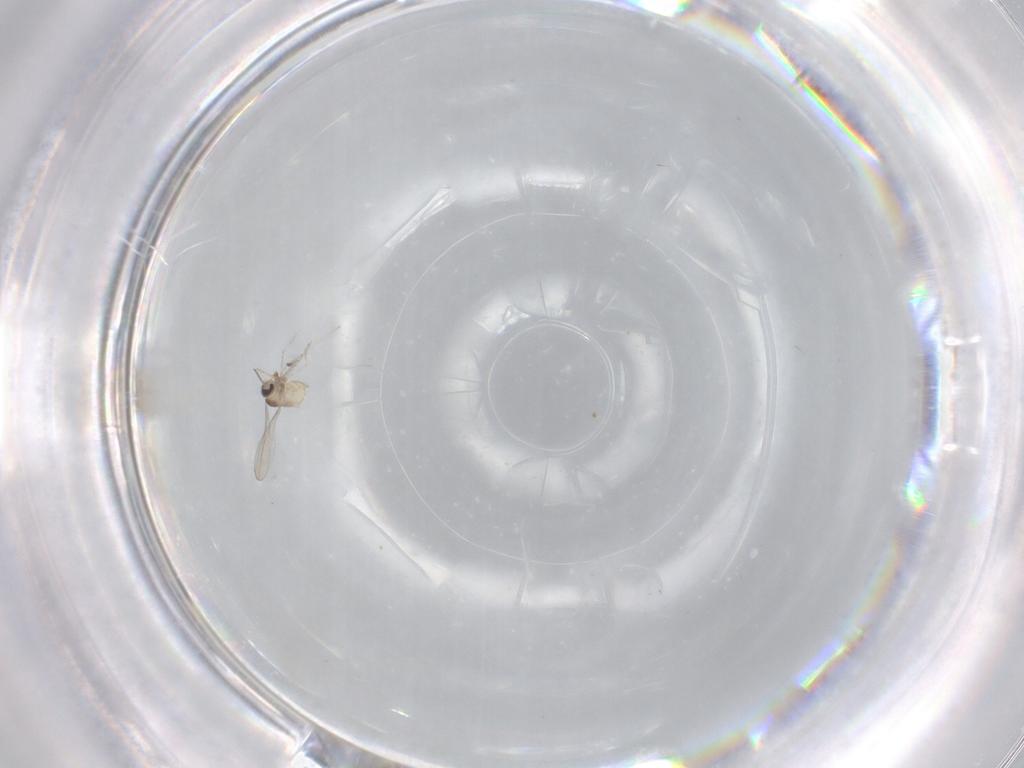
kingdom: Animalia
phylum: Arthropoda
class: Insecta
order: Diptera
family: Cecidomyiidae
